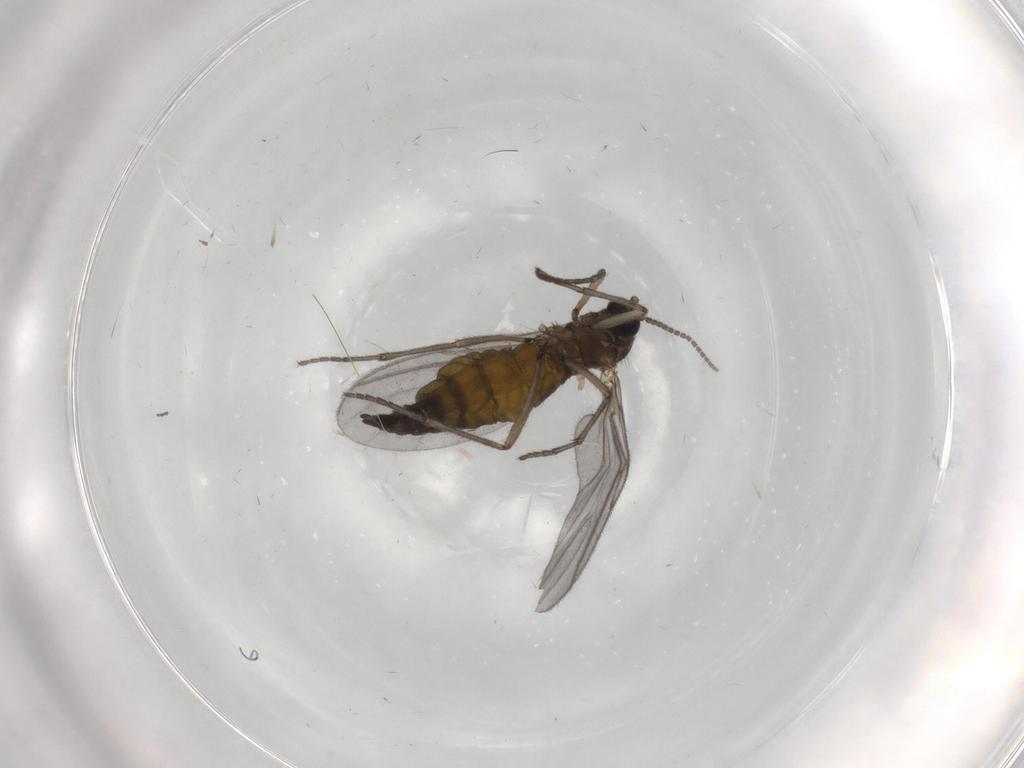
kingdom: Animalia
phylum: Arthropoda
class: Insecta
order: Diptera
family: Sciaridae
